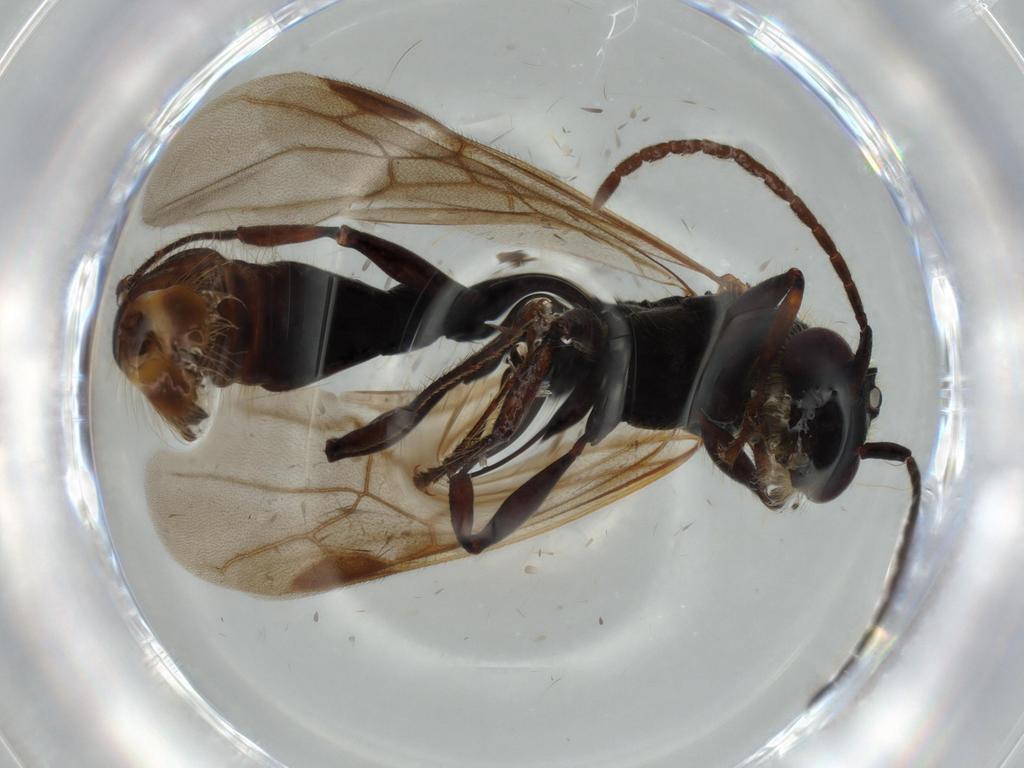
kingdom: Animalia
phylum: Arthropoda
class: Insecta
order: Hymenoptera
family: Formicidae
